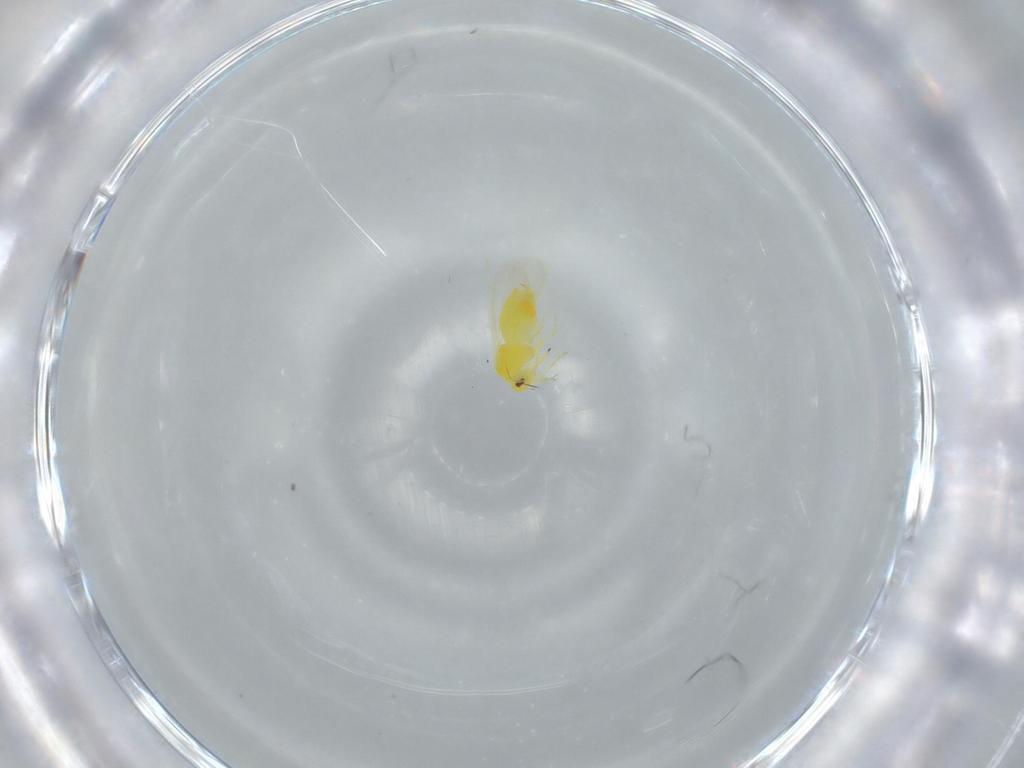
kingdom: Animalia
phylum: Arthropoda
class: Insecta
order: Hemiptera
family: Aleyrodidae
